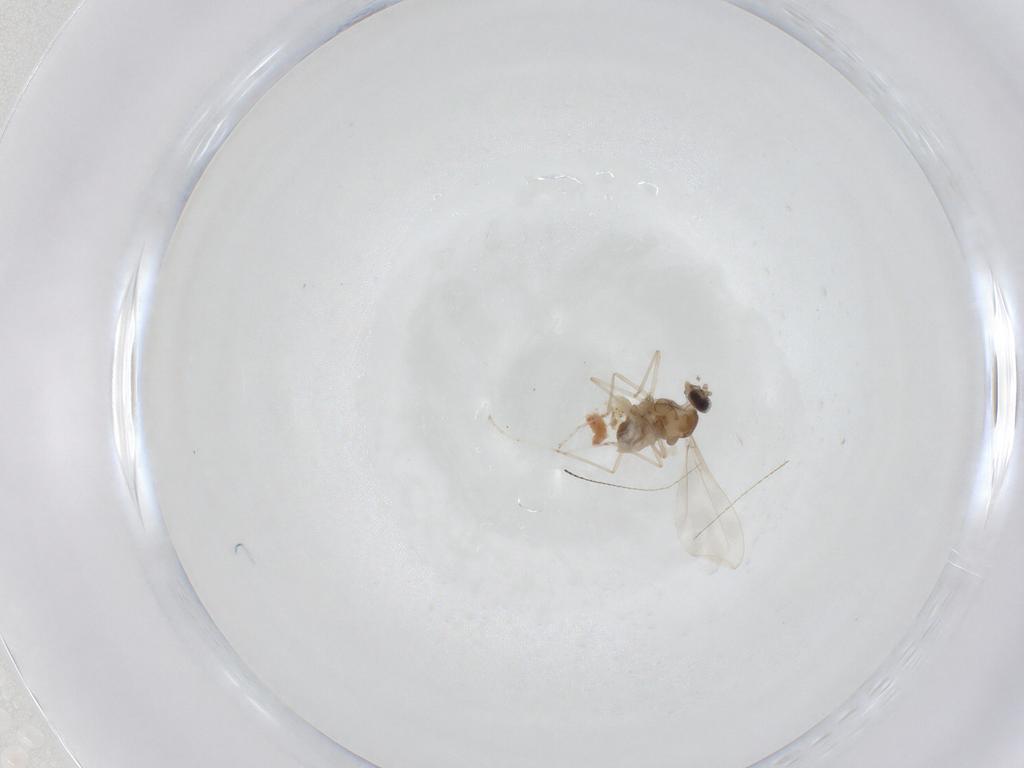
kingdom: Animalia
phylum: Arthropoda
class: Insecta
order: Diptera
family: Cecidomyiidae
